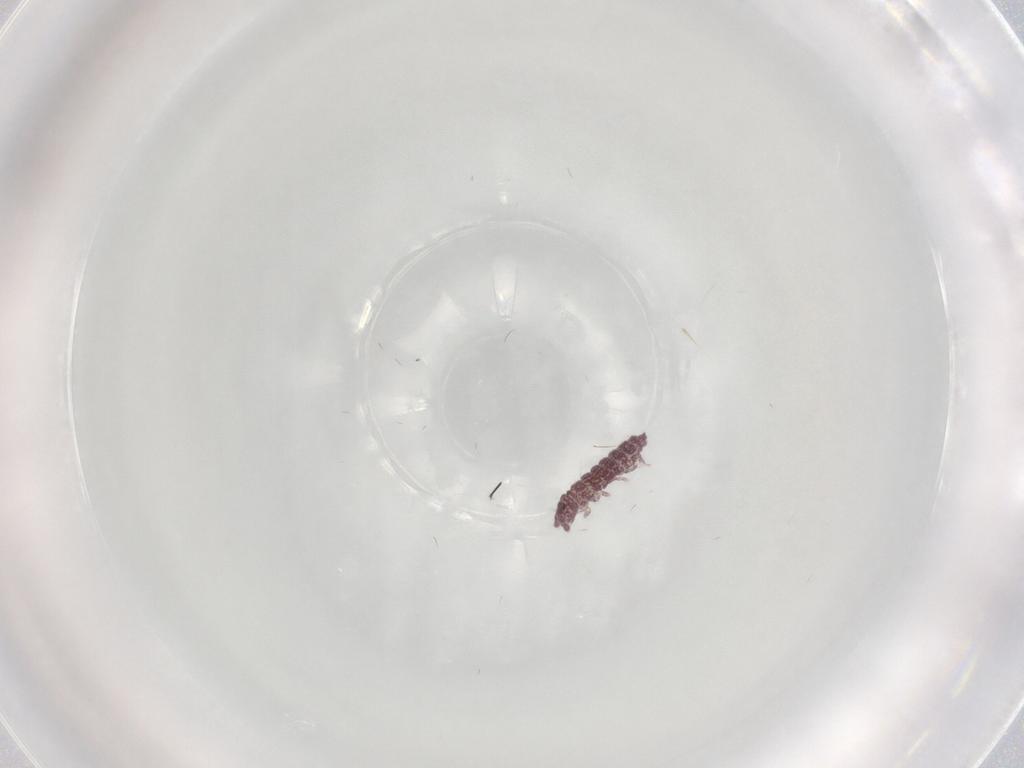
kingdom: Animalia
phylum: Arthropoda
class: Collembola
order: Poduromorpha
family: Hypogastruridae
